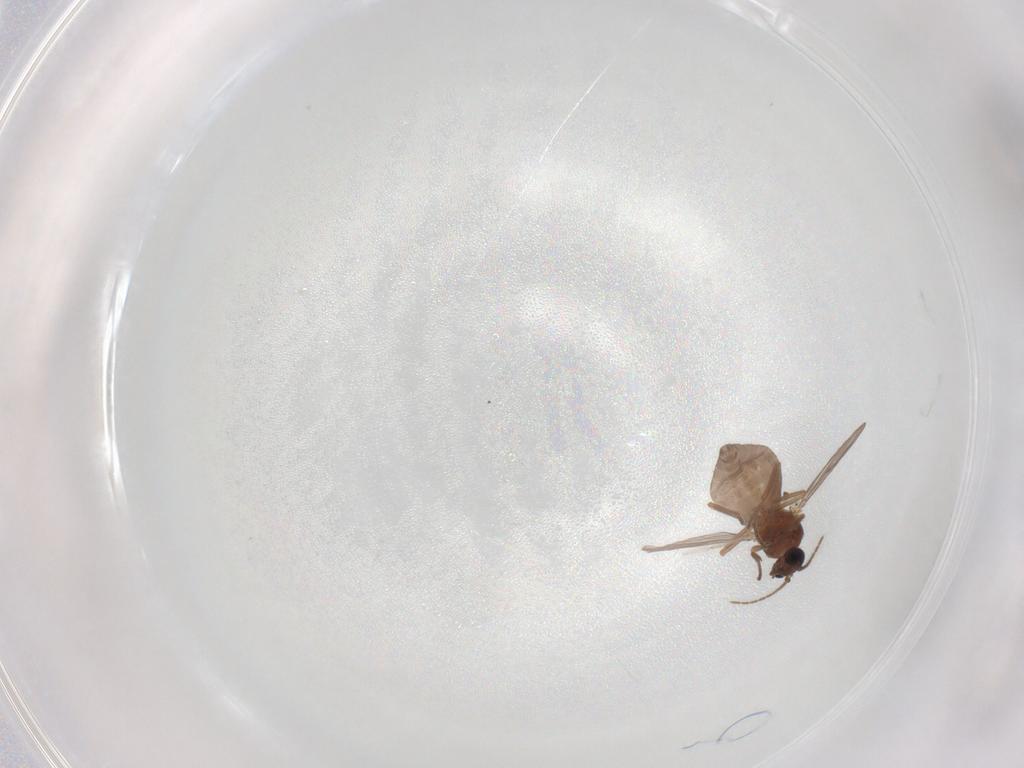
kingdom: Animalia
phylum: Arthropoda
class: Insecta
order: Diptera
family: Ceratopogonidae
